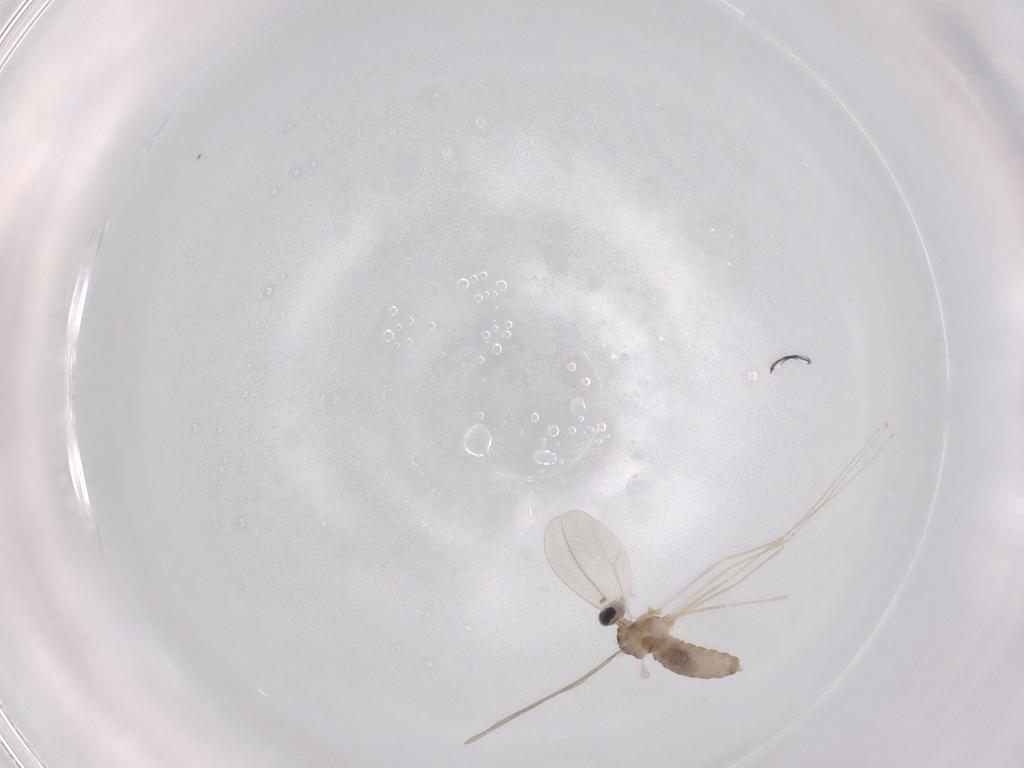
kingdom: Animalia
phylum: Arthropoda
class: Insecta
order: Diptera
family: Cecidomyiidae
